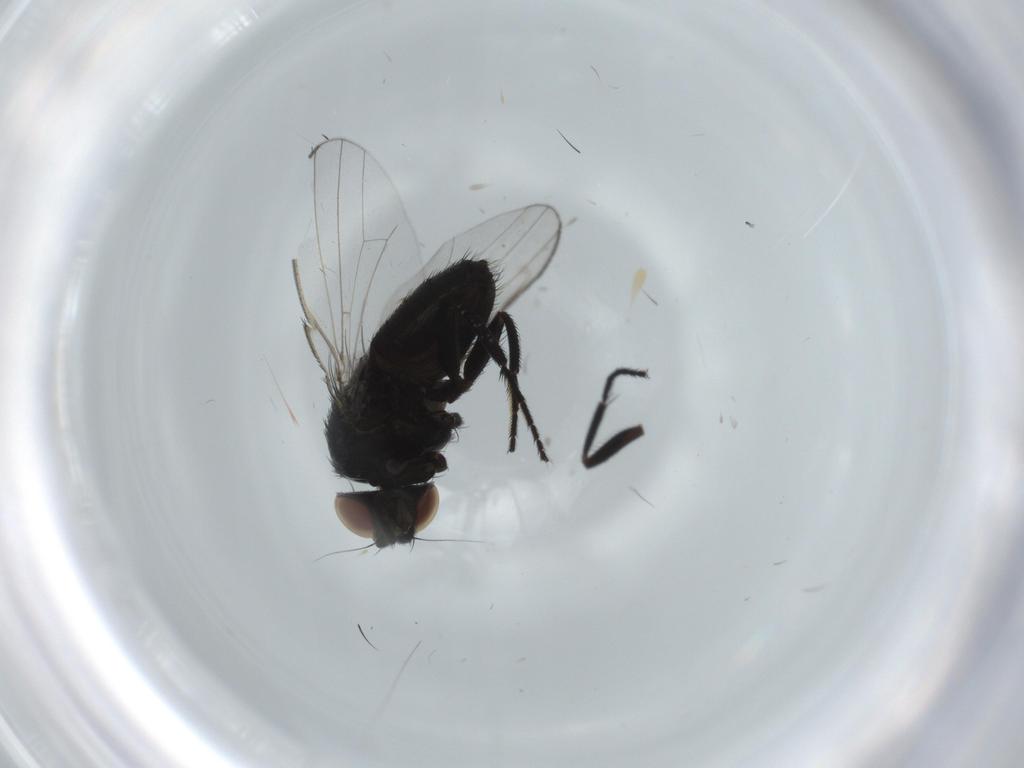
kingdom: Animalia
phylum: Arthropoda
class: Insecta
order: Diptera
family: Milichiidae
